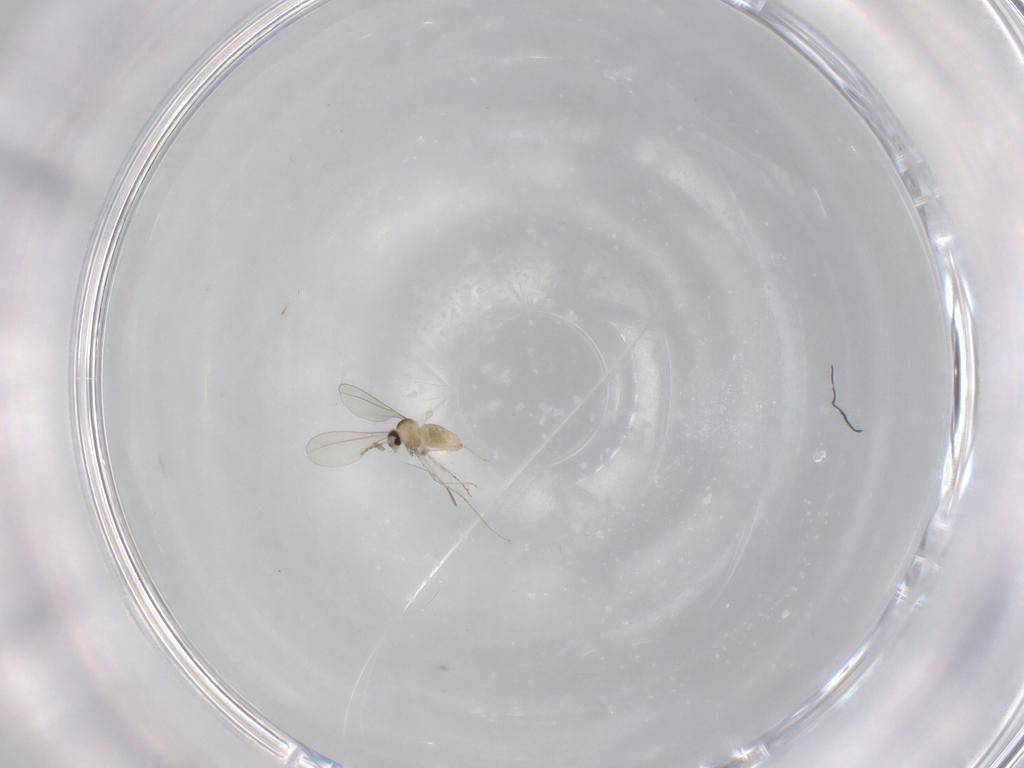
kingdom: Animalia
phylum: Arthropoda
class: Insecta
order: Diptera
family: Cecidomyiidae
